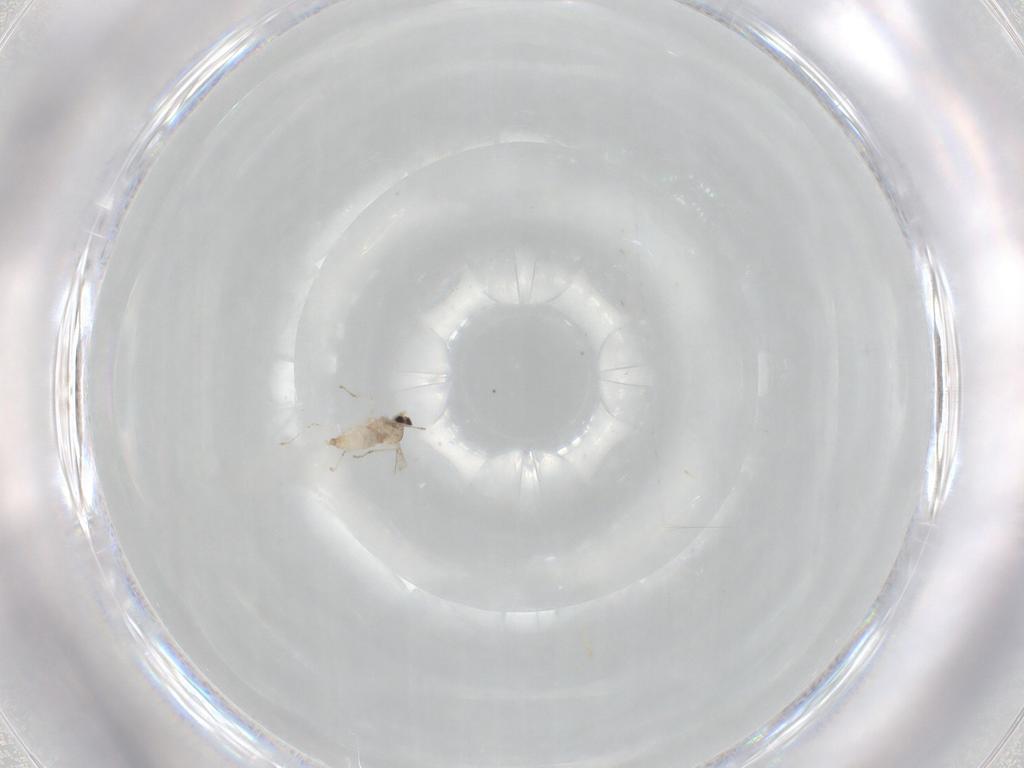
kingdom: Animalia
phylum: Arthropoda
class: Insecta
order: Diptera
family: Cecidomyiidae
